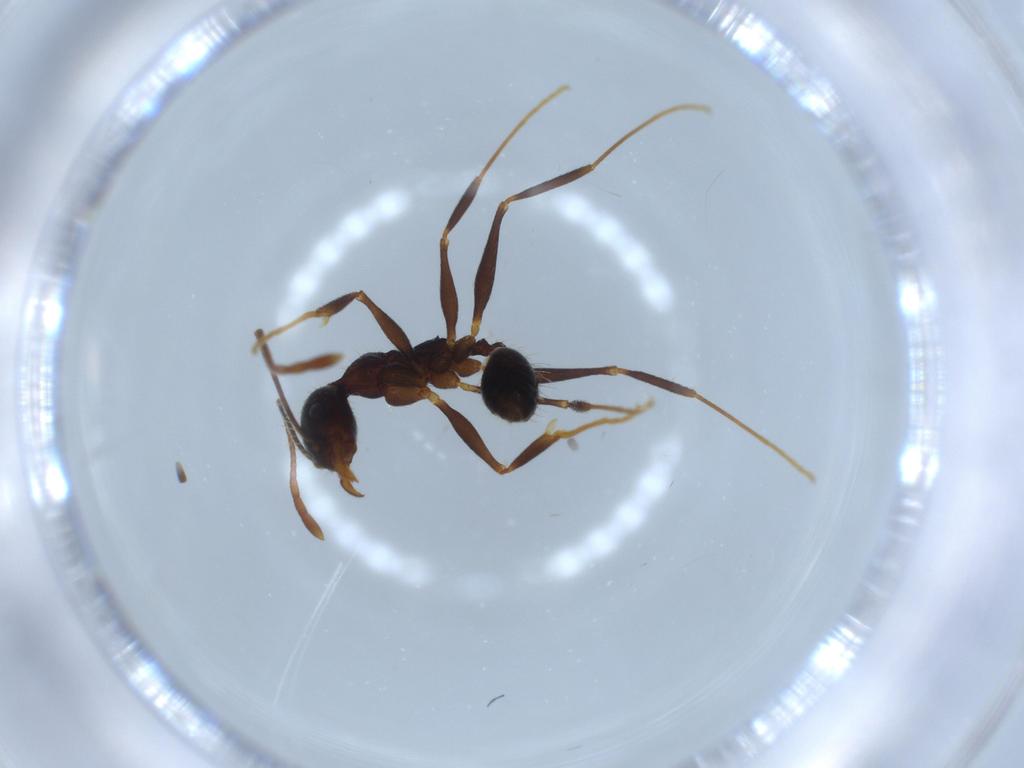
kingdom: Animalia
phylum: Arthropoda
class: Insecta
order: Hymenoptera
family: Formicidae
